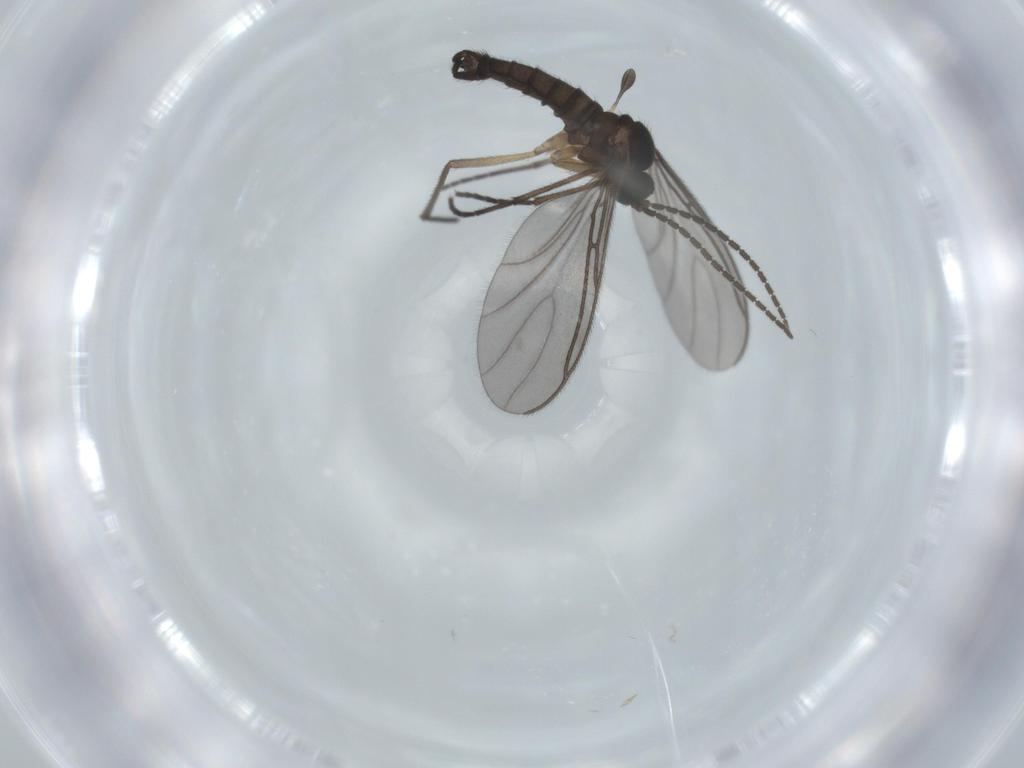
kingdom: Animalia
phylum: Arthropoda
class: Insecta
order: Diptera
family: Sciaridae
